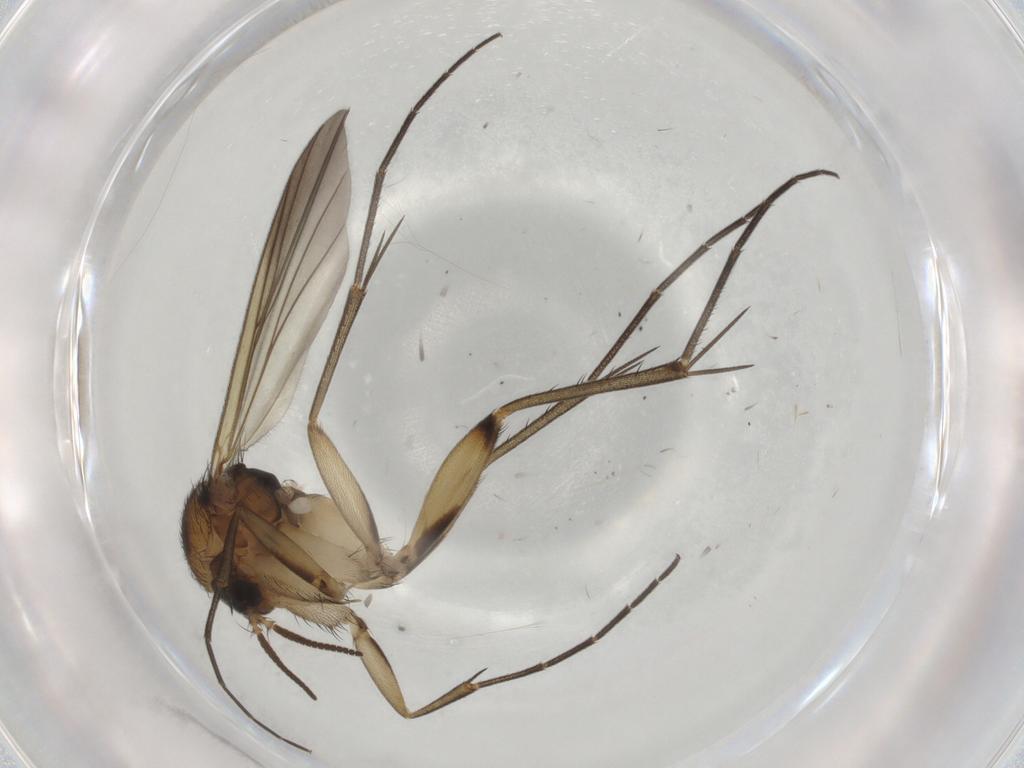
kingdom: Animalia
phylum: Arthropoda
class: Insecta
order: Diptera
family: Mycetophilidae
